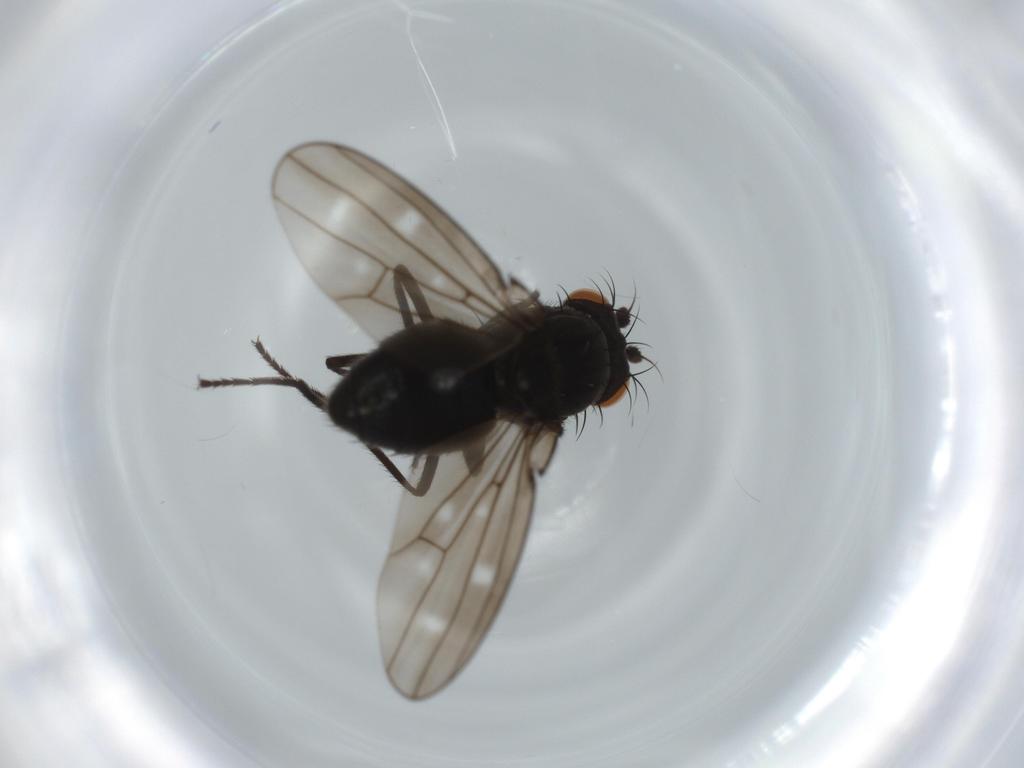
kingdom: Animalia
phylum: Arthropoda
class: Insecta
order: Diptera
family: Ephydridae
